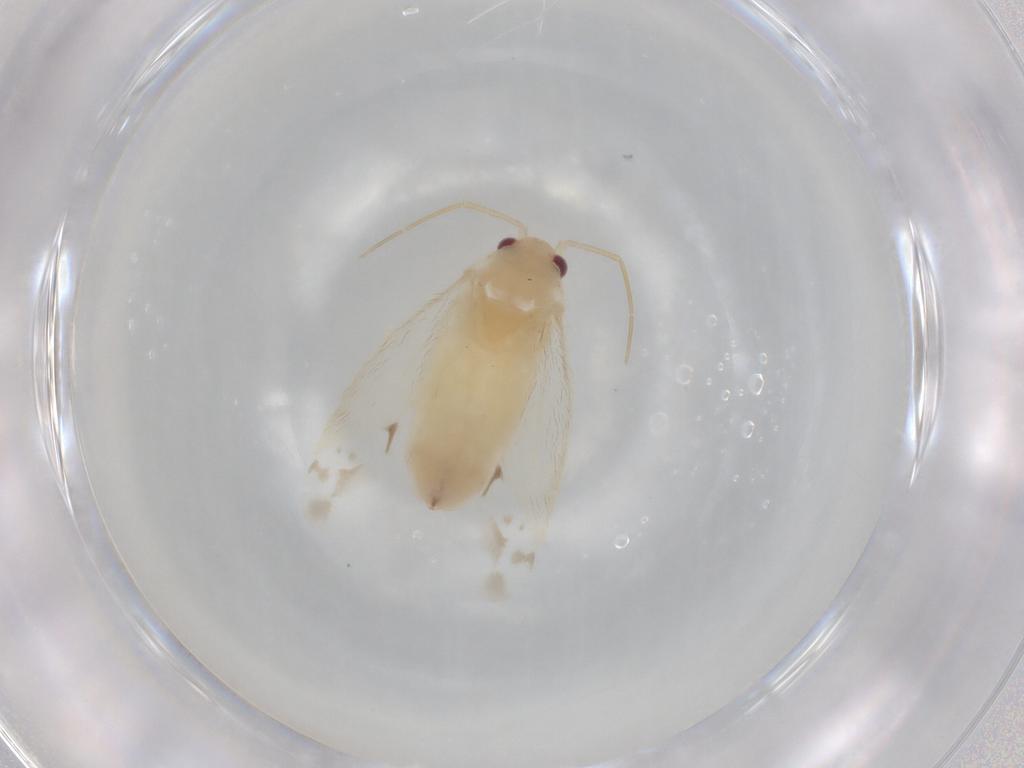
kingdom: Animalia
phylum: Arthropoda
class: Insecta
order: Hemiptera
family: Miridae
